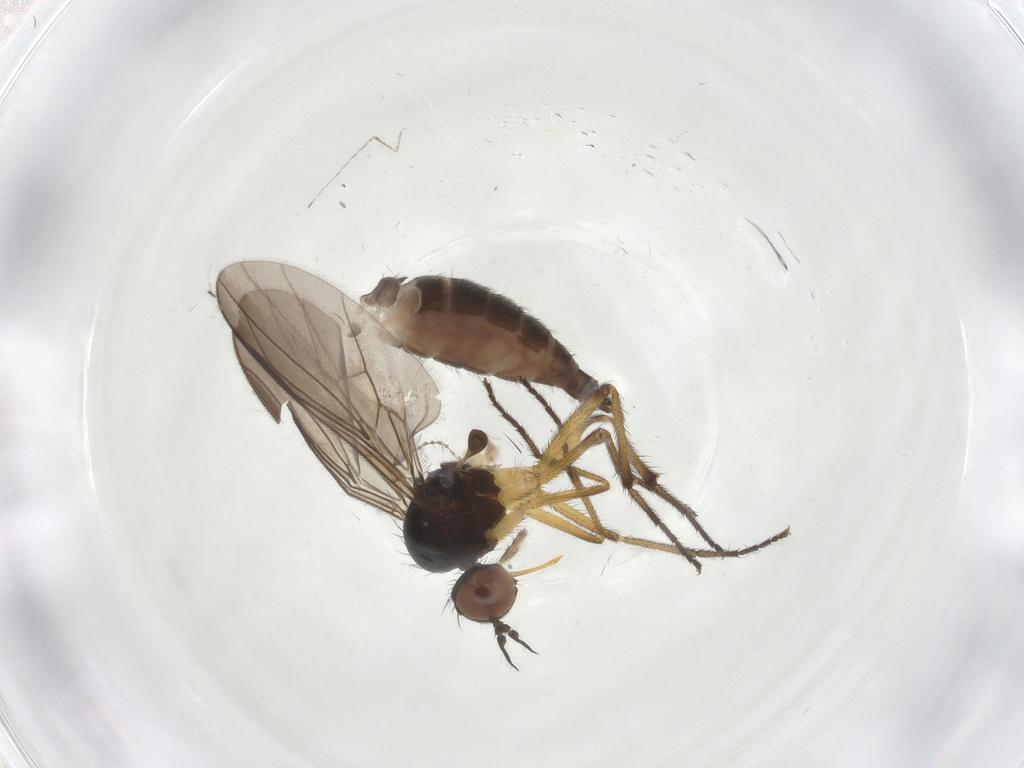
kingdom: Animalia
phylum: Arthropoda
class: Insecta
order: Diptera
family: Empididae
